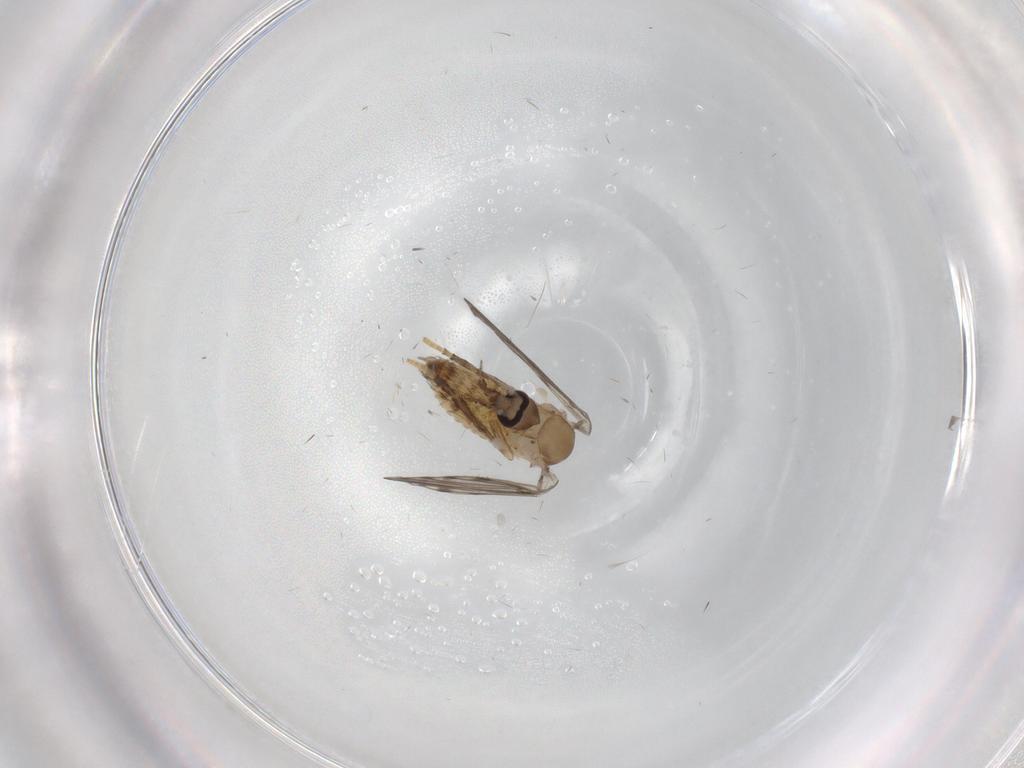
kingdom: Animalia
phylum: Arthropoda
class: Insecta
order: Diptera
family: Psychodidae
